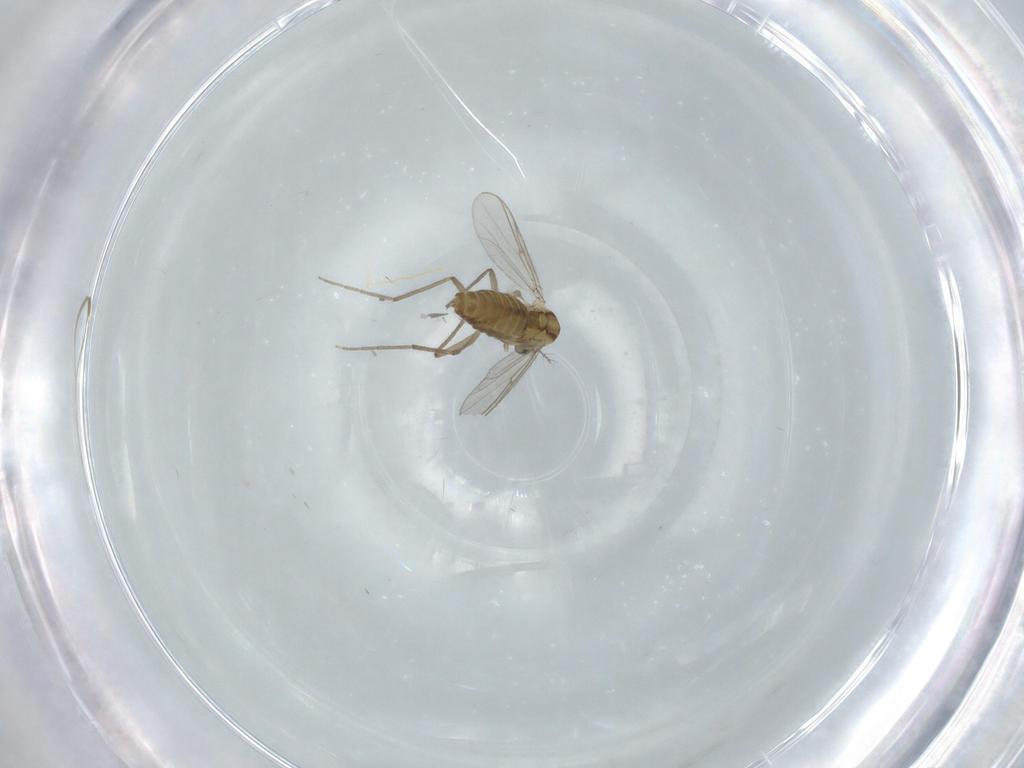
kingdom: Animalia
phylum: Arthropoda
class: Insecta
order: Diptera
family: Chironomidae
